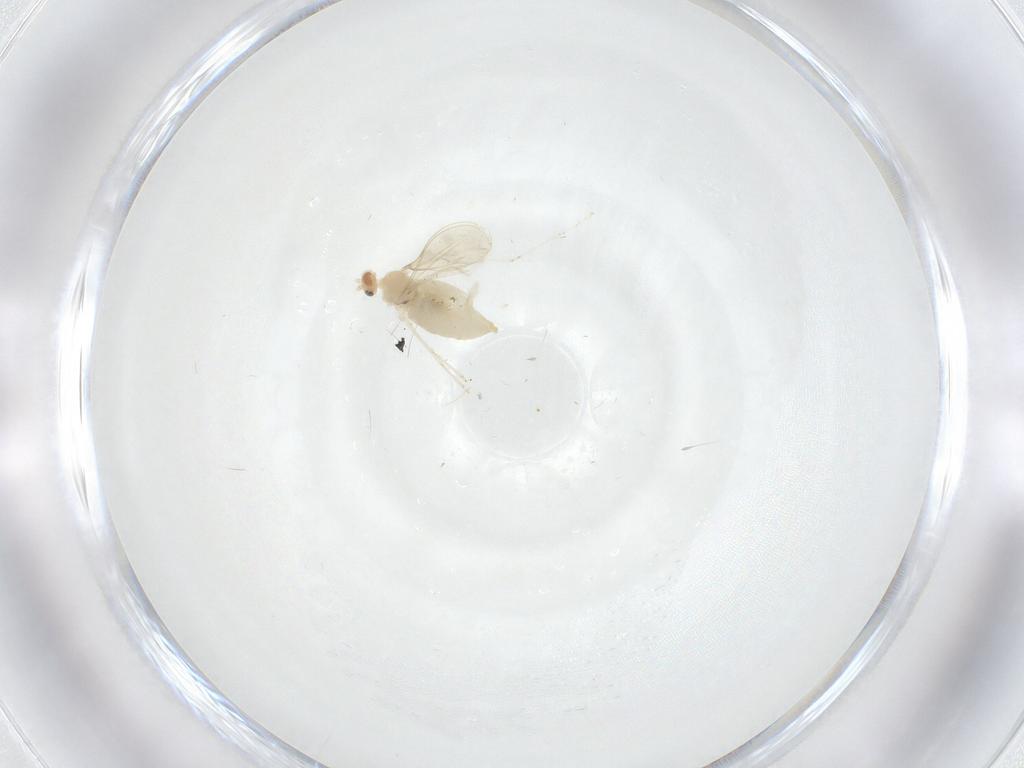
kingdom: Animalia
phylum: Arthropoda
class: Insecta
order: Diptera
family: Cecidomyiidae
